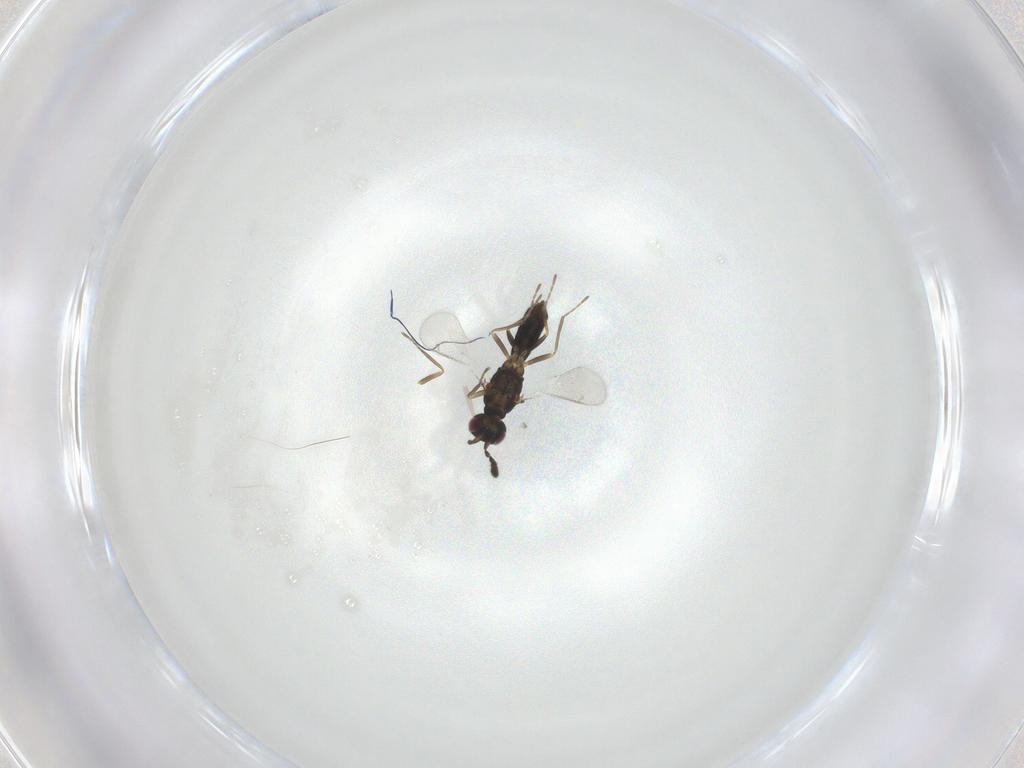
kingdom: Animalia
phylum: Arthropoda
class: Insecta
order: Hymenoptera
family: Eulophidae
